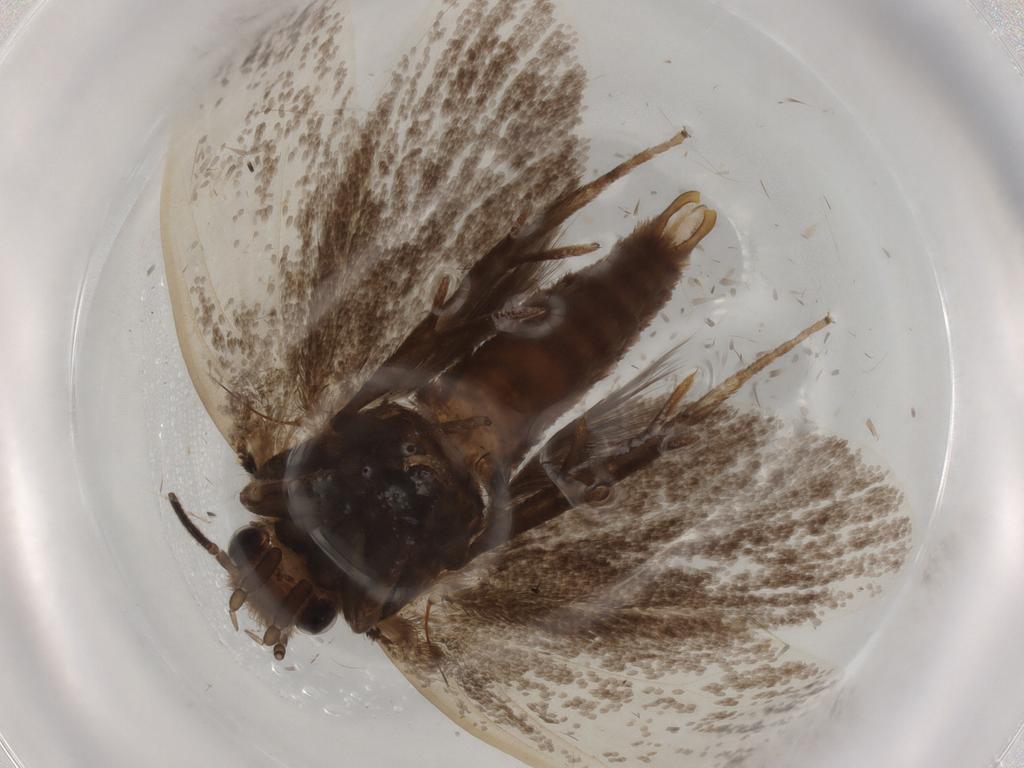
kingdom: Animalia
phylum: Arthropoda
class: Insecta
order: Lepidoptera
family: Tineidae
